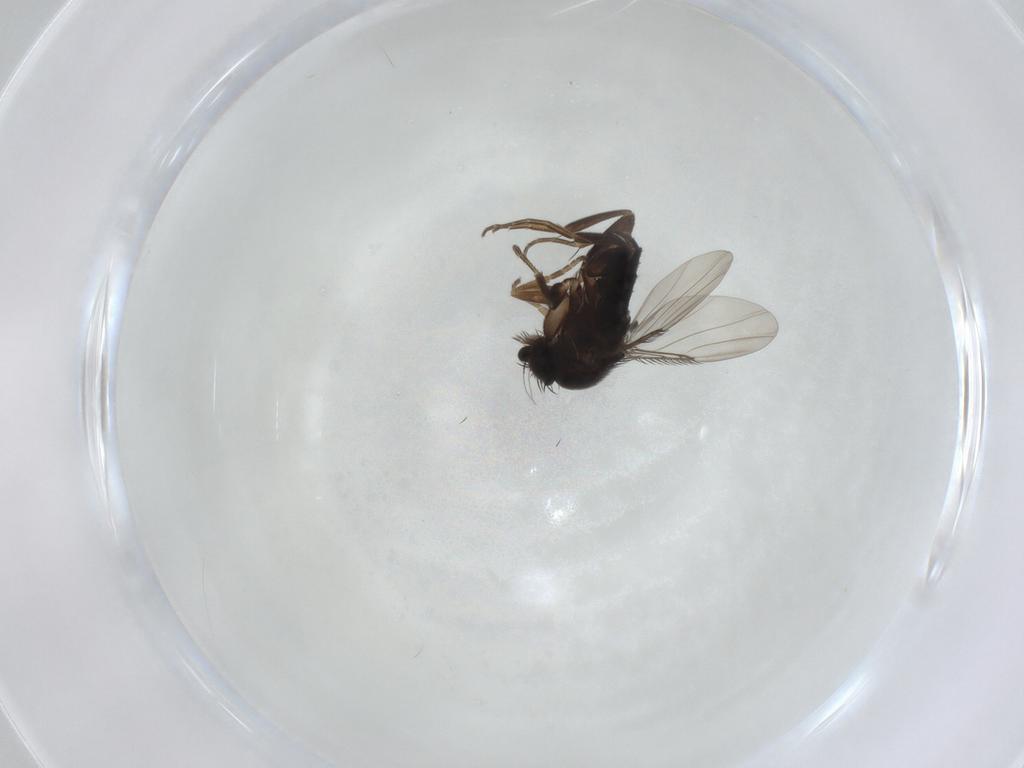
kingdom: Animalia
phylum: Arthropoda
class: Insecta
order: Diptera
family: Phoridae
